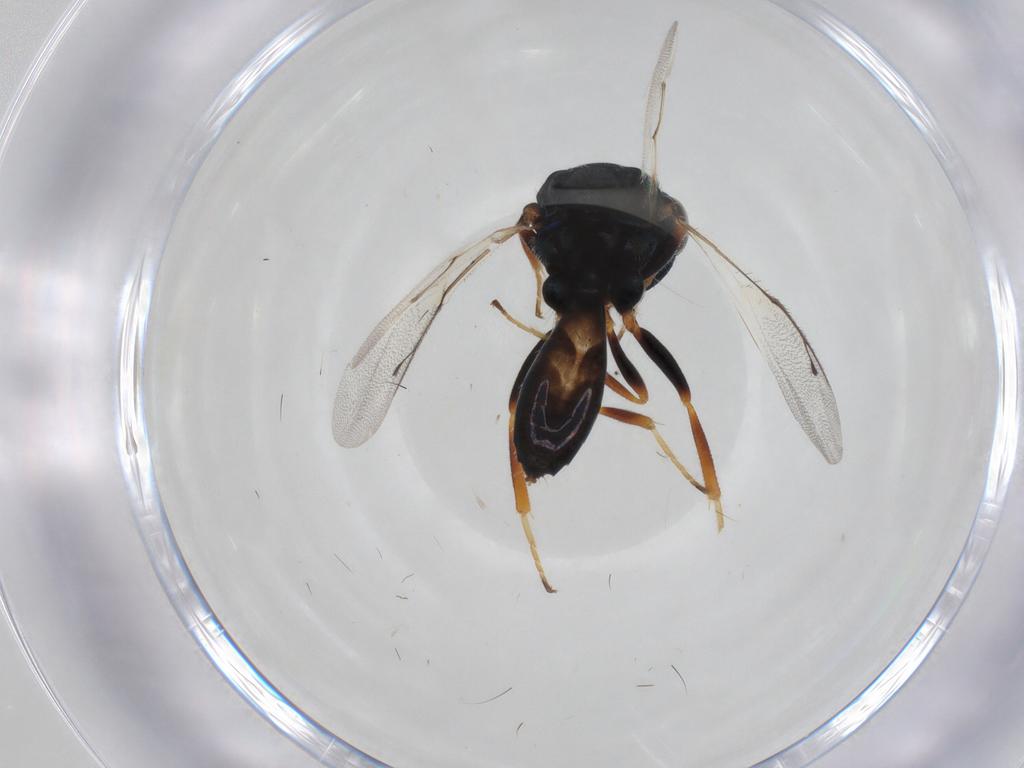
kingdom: Animalia
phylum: Arthropoda
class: Insecta
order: Hymenoptera
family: Pteromalidae
